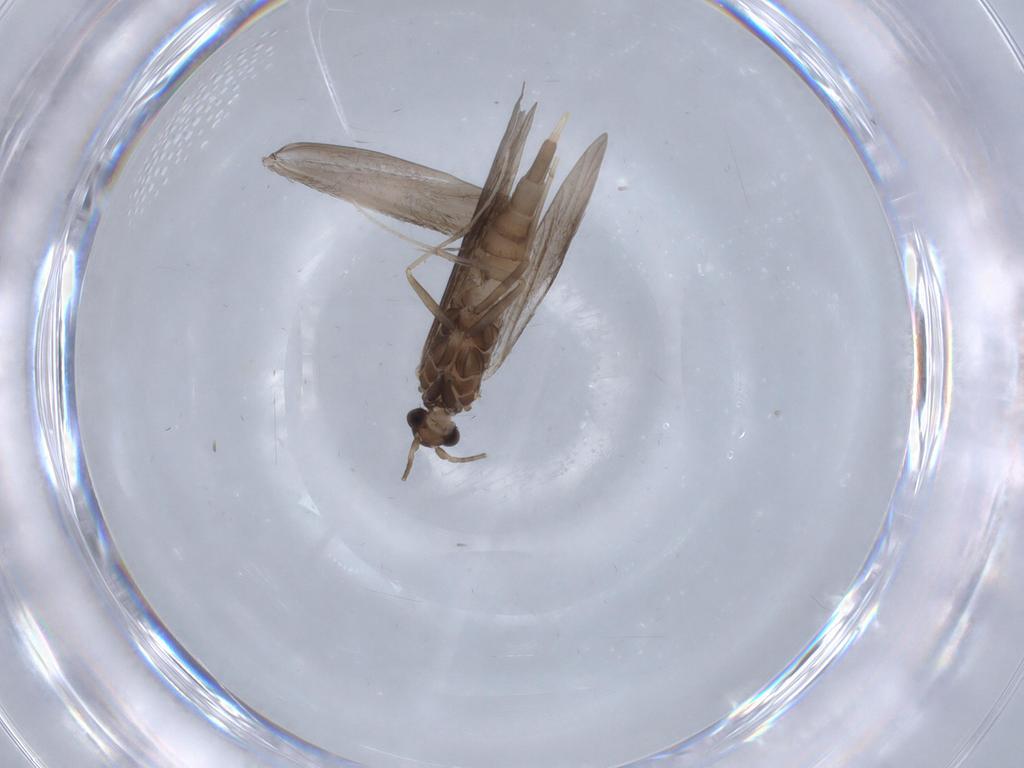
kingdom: Animalia
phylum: Arthropoda
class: Insecta
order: Trichoptera
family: Xiphocentronidae
